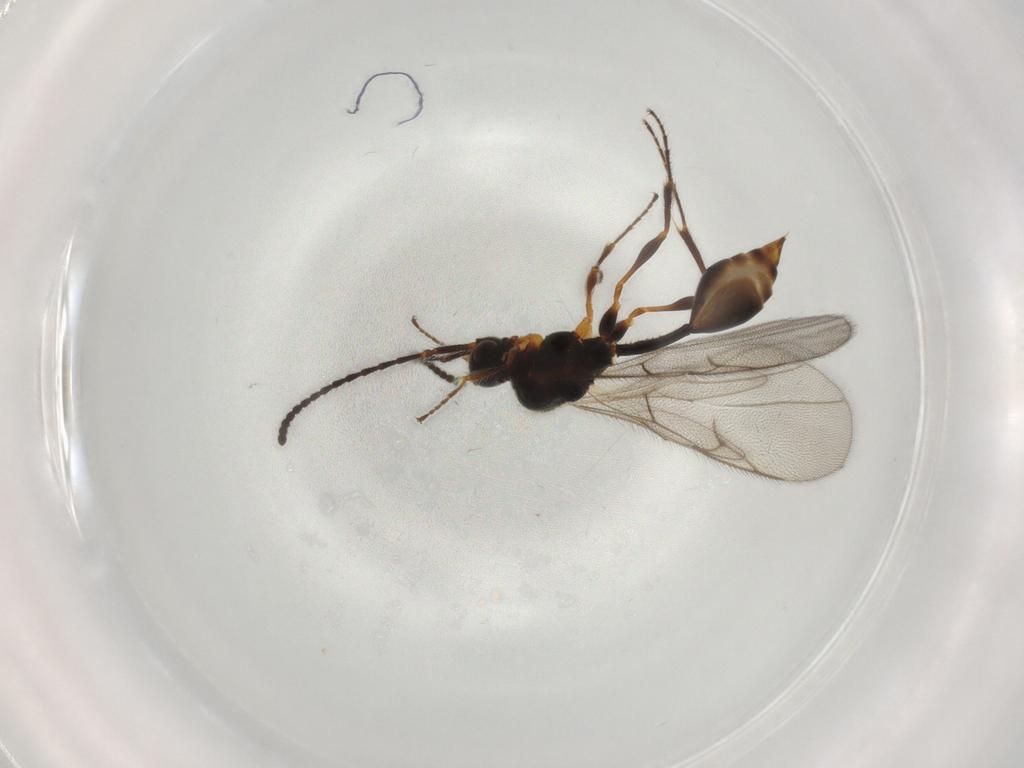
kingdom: Animalia
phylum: Arthropoda
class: Insecta
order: Hymenoptera
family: Diapriidae
